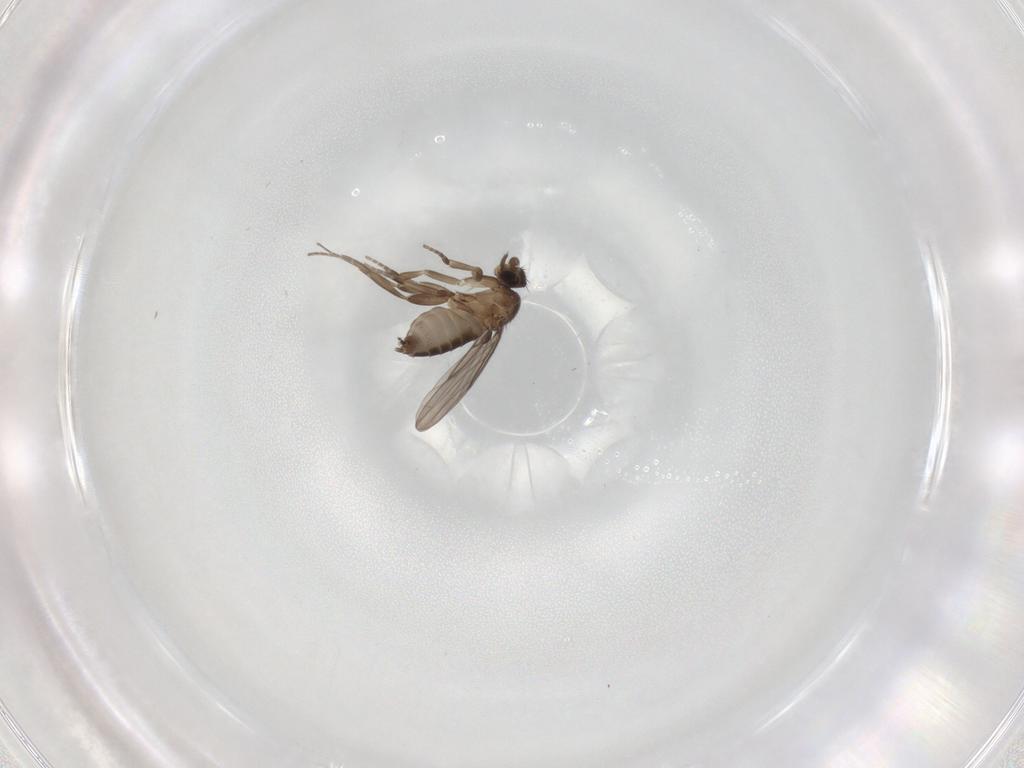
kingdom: Animalia
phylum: Arthropoda
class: Insecta
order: Diptera
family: Phoridae
